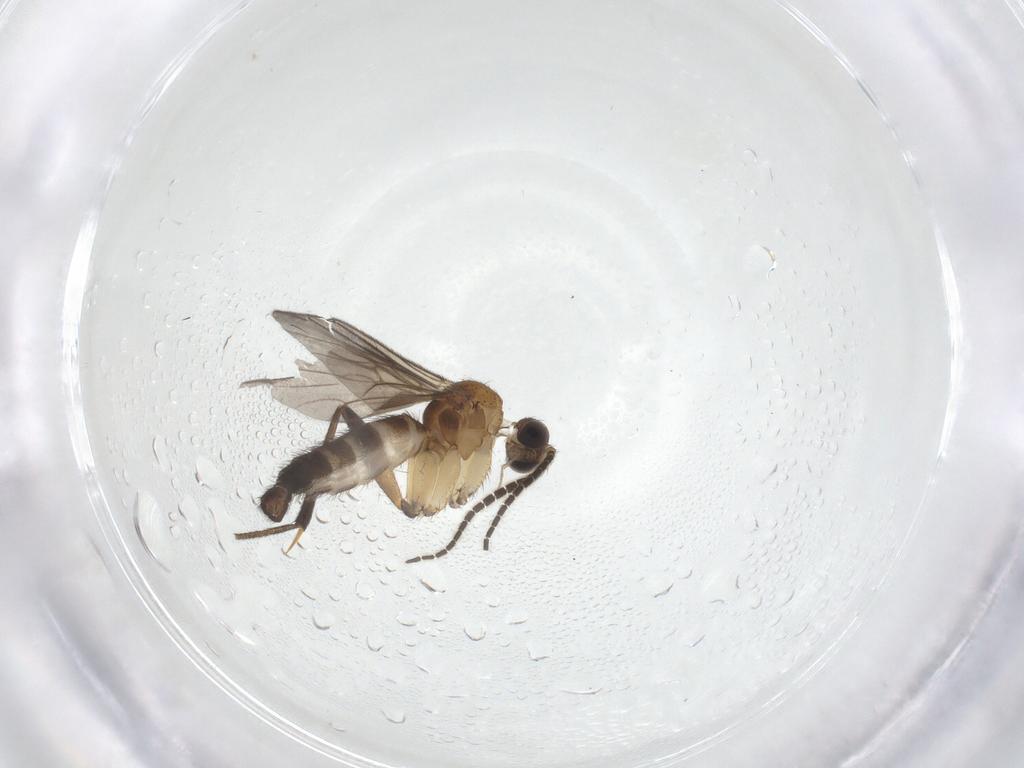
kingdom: Animalia
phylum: Arthropoda
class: Insecta
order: Diptera
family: Mycetophilidae
